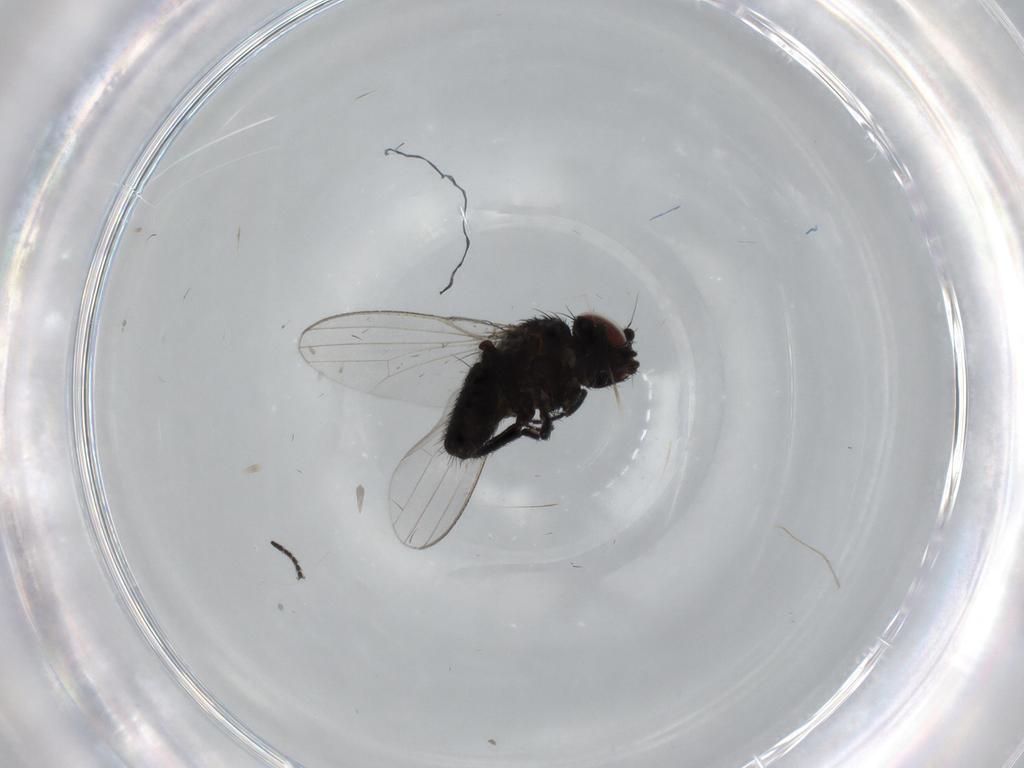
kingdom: Animalia
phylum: Arthropoda
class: Insecta
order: Diptera
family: Milichiidae
